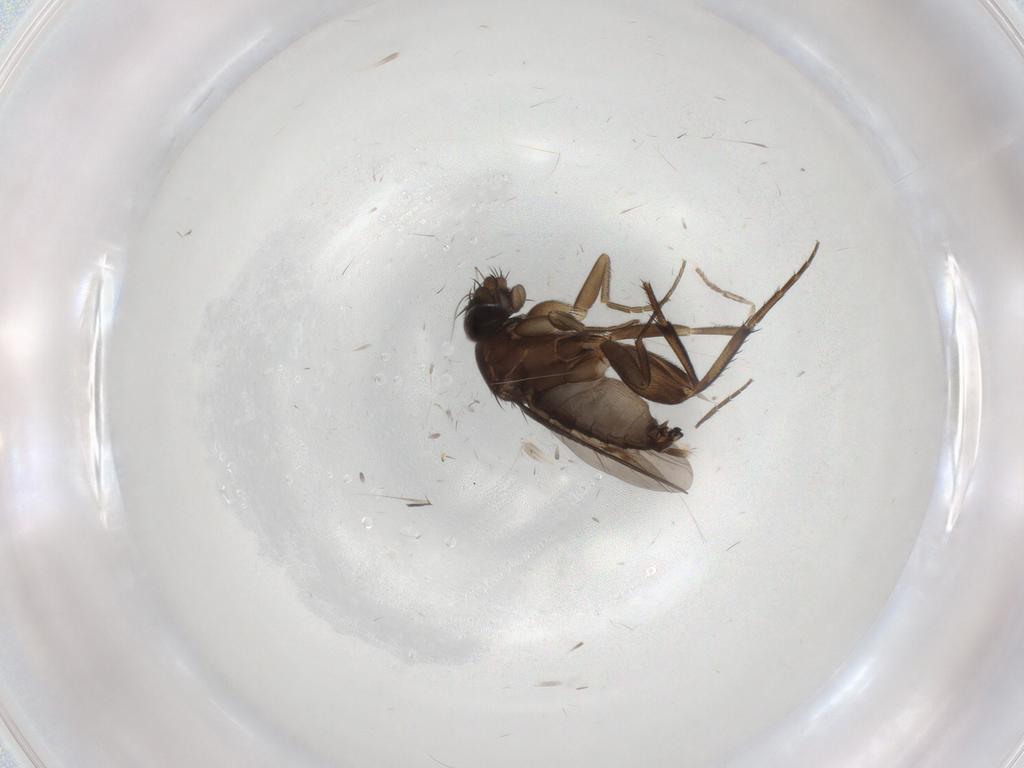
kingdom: Animalia
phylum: Arthropoda
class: Insecta
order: Diptera
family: Phoridae
